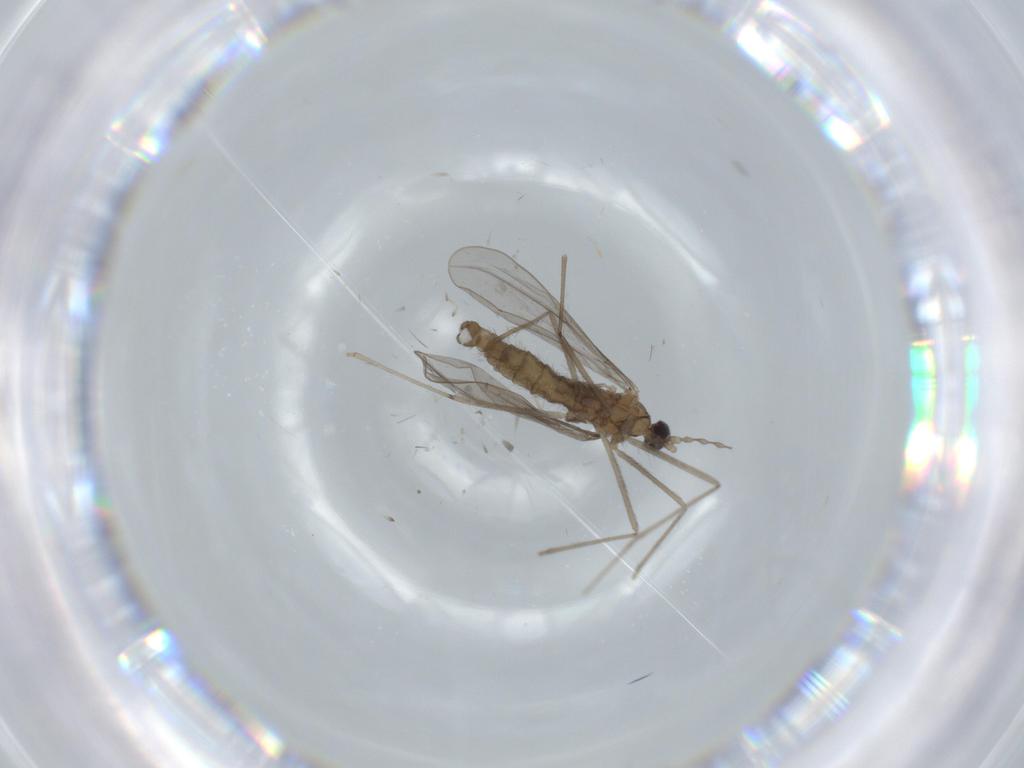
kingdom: Animalia
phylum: Arthropoda
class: Insecta
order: Diptera
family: Cecidomyiidae
